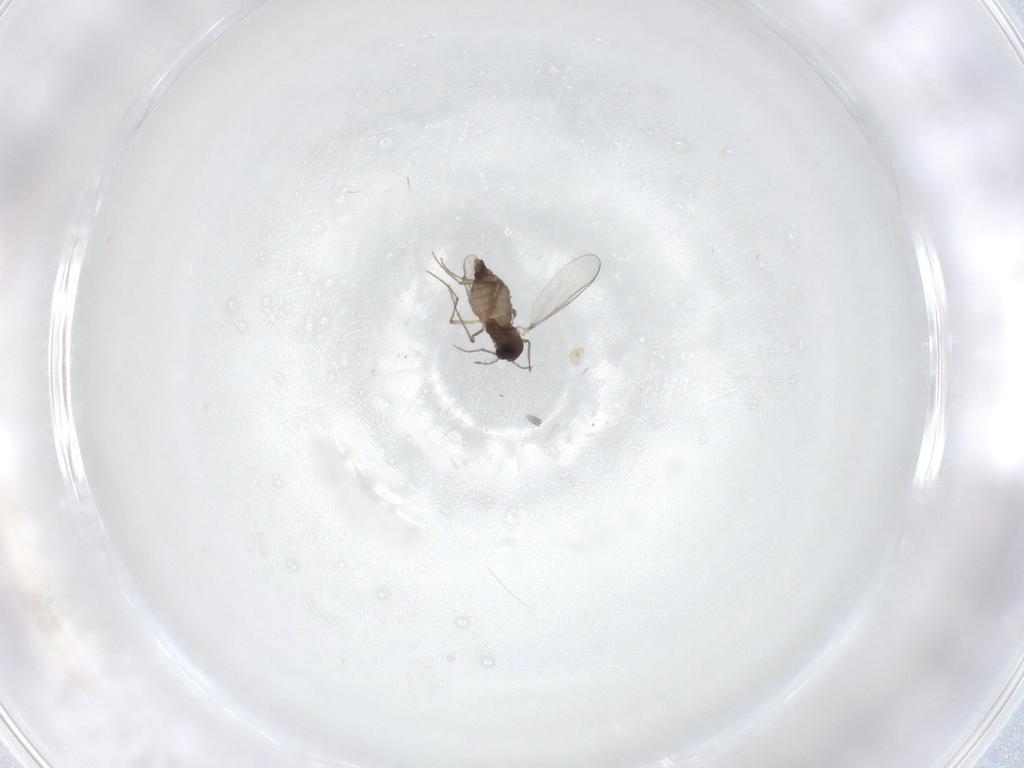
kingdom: Animalia
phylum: Arthropoda
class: Insecta
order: Diptera
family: Chironomidae
